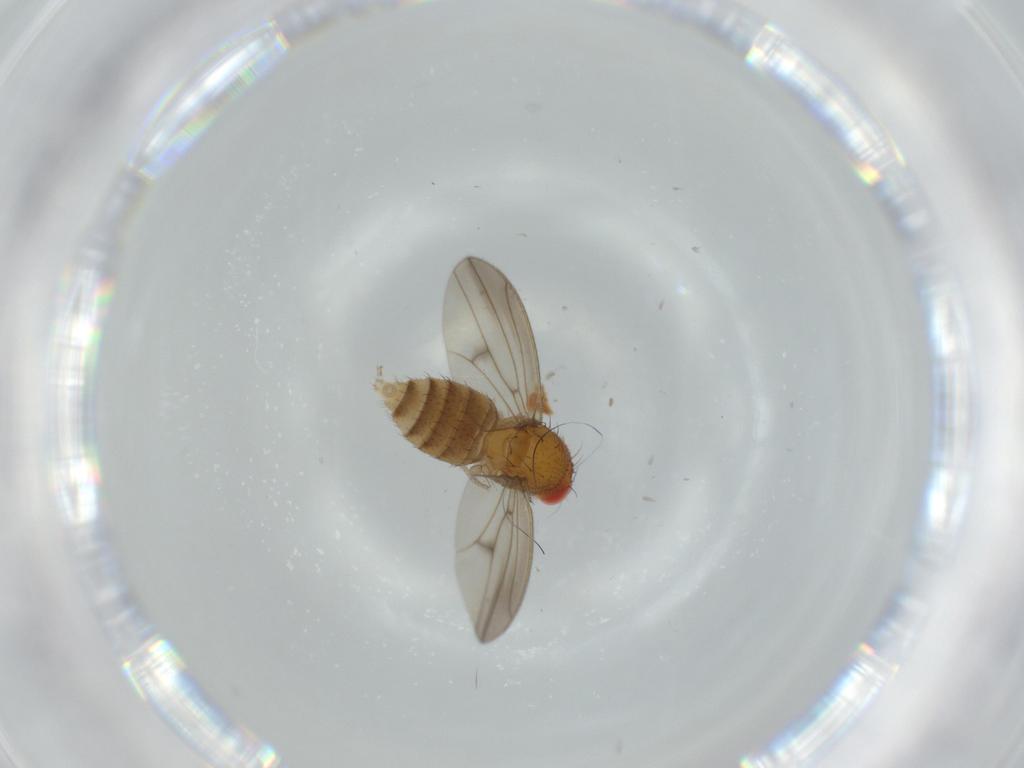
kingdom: Animalia
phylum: Arthropoda
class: Insecta
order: Diptera
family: Drosophilidae
